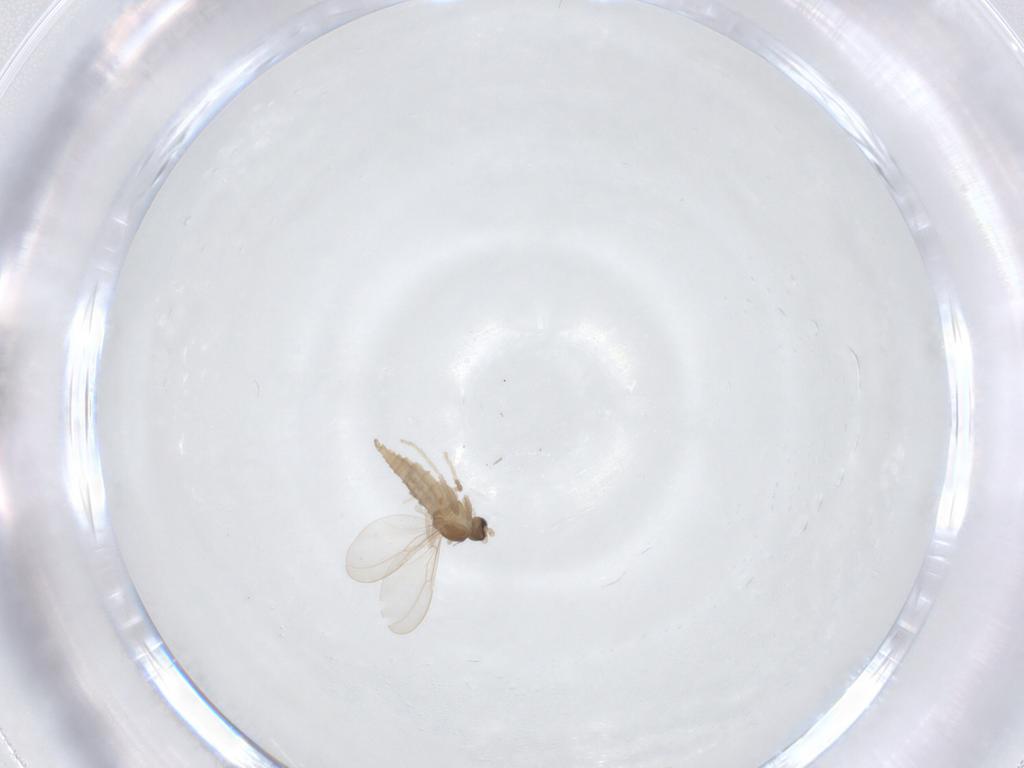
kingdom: Animalia
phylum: Arthropoda
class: Insecta
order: Diptera
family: Cecidomyiidae
